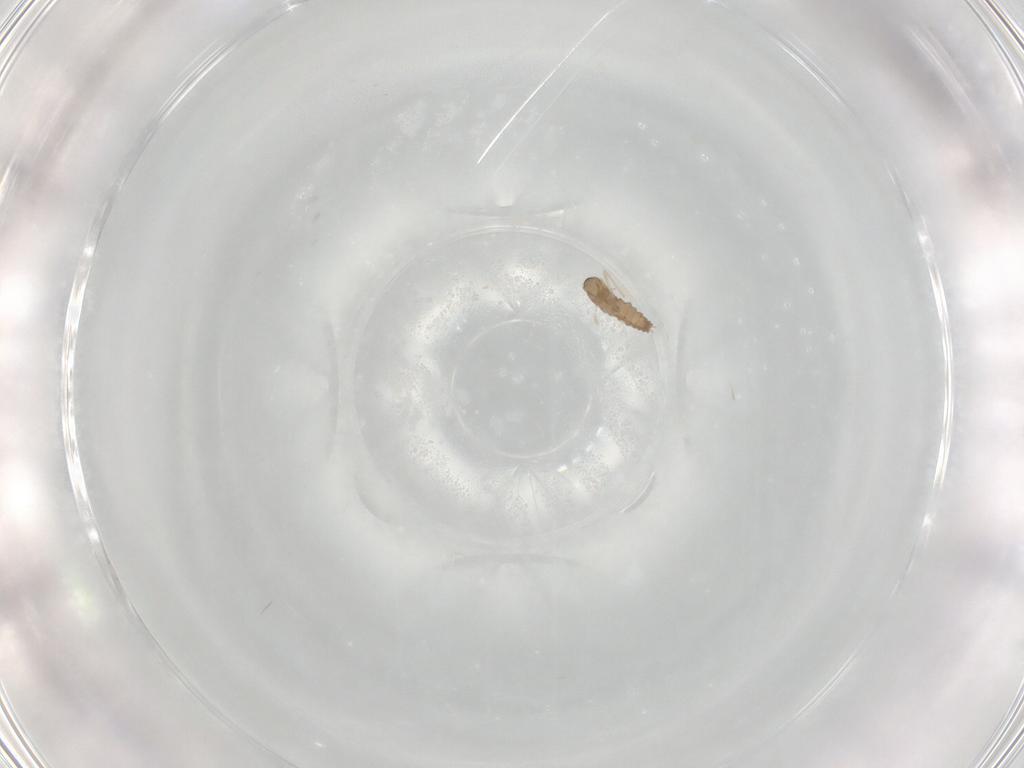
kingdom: Animalia
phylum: Arthropoda
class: Insecta
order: Diptera
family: Cecidomyiidae
